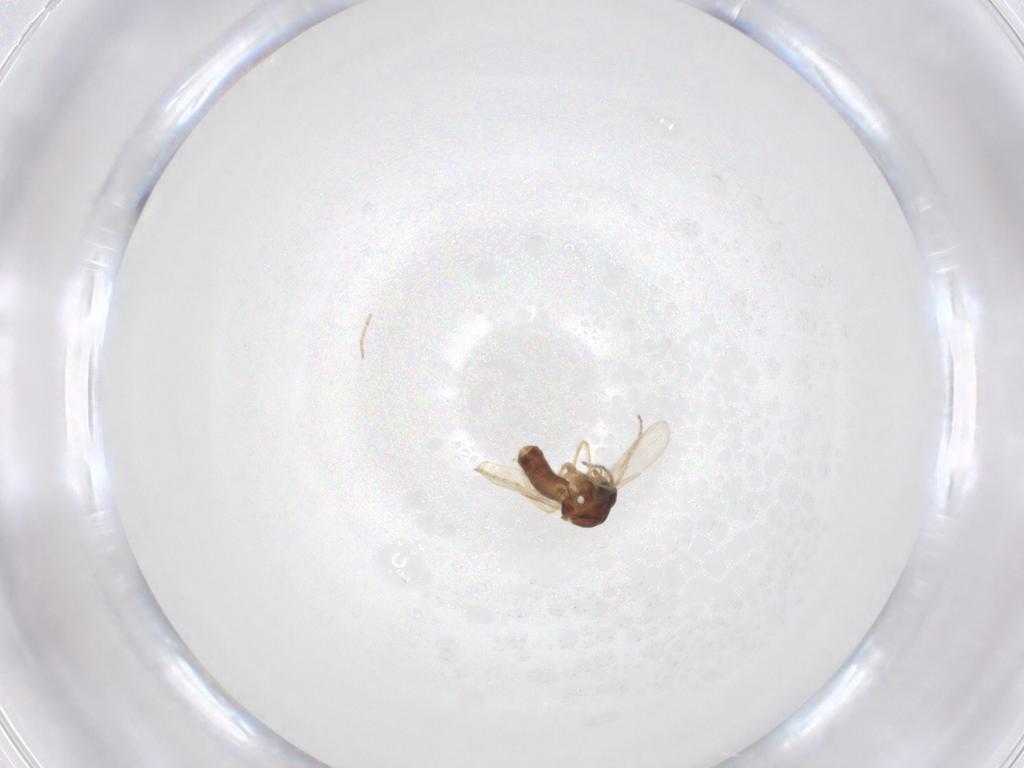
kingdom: Animalia
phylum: Arthropoda
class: Insecta
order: Diptera
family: Ceratopogonidae
